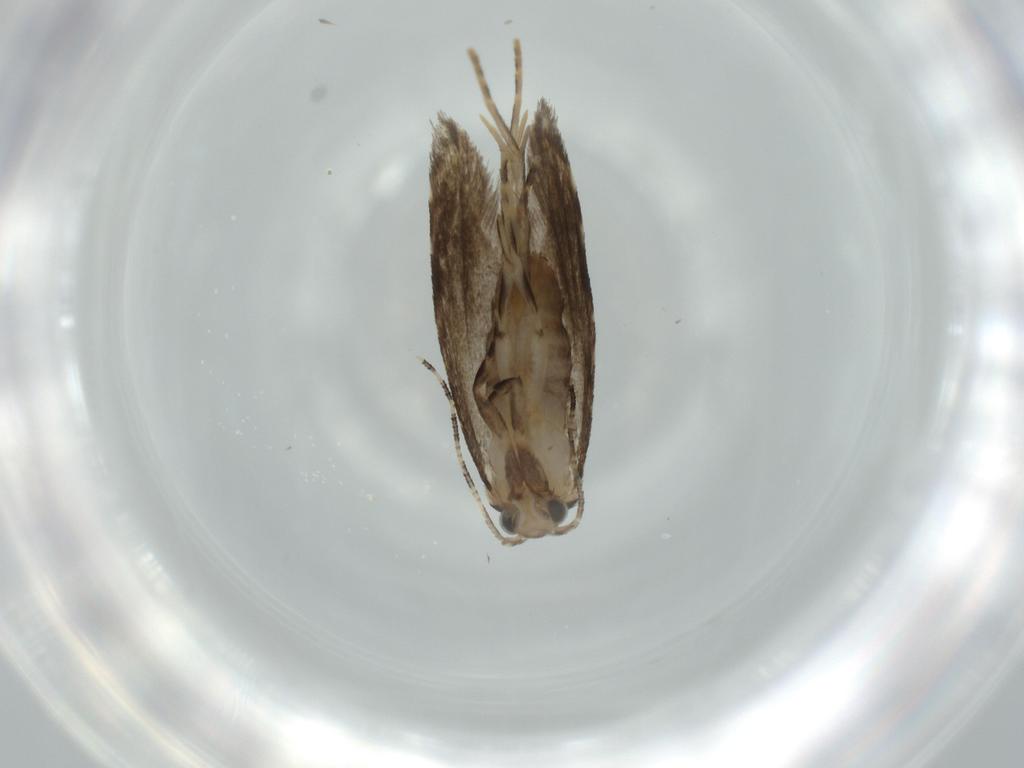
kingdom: Animalia
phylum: Arthropoda
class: Insecta
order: Lepidoptera
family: Tineidae
